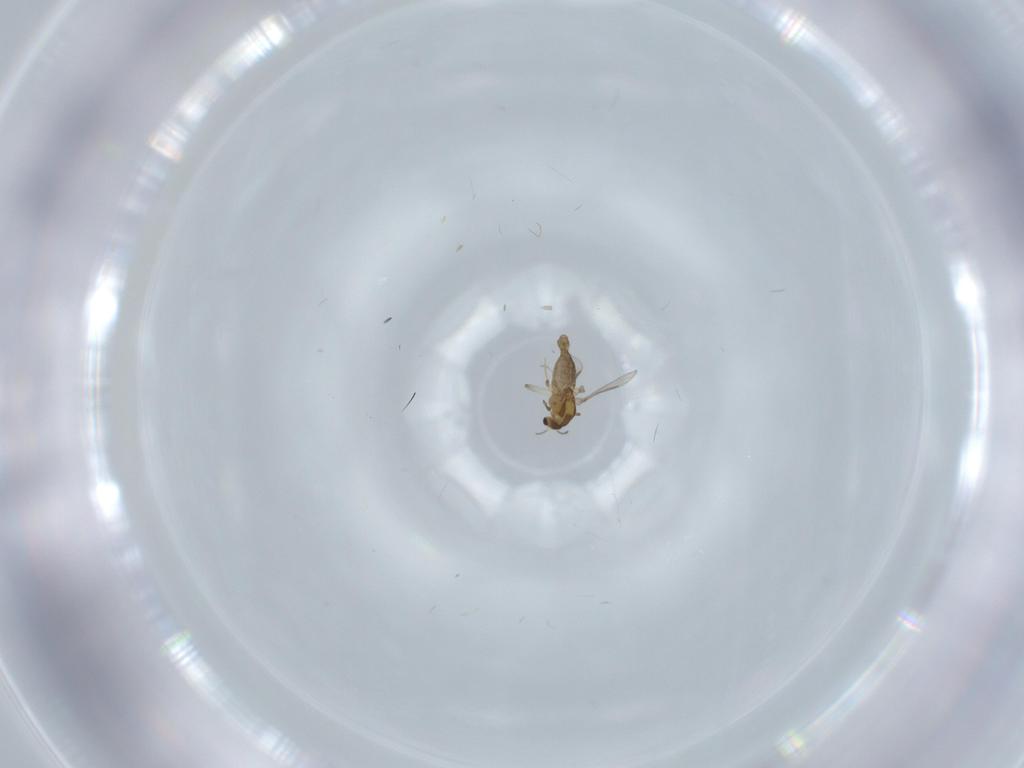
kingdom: Animalia
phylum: Arthropoda
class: Insecta
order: Diptera
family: Chironomidae
